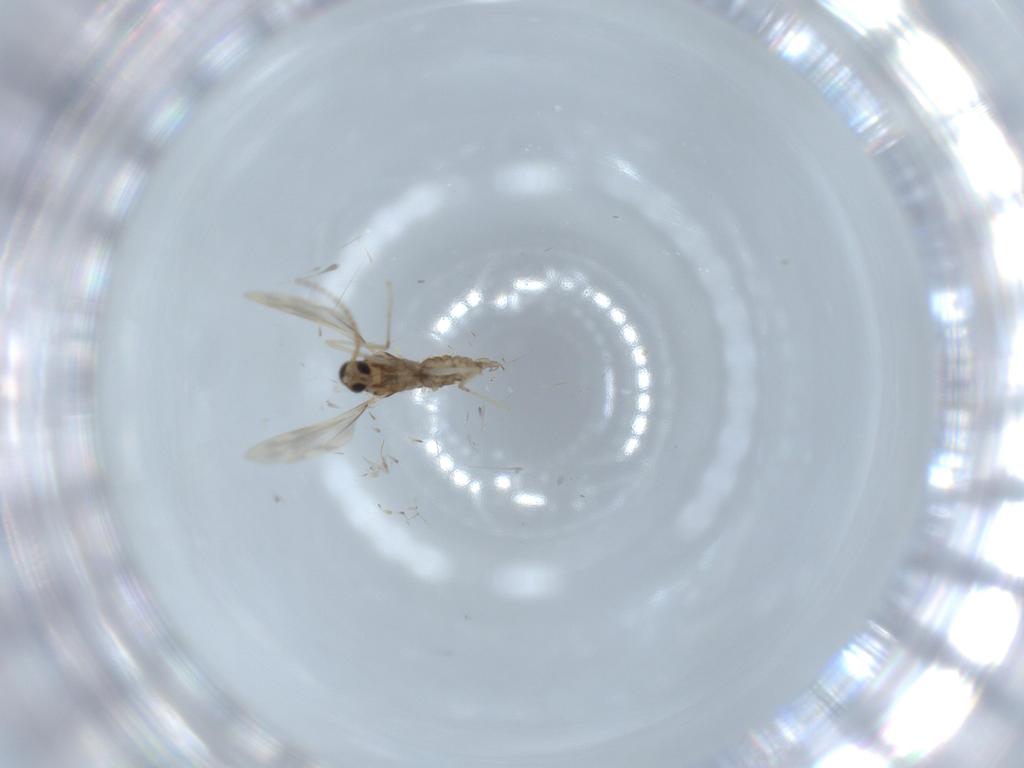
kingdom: Animalia
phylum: Arthropoda
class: Insecta
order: Diptera
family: Cecidomyiidae
